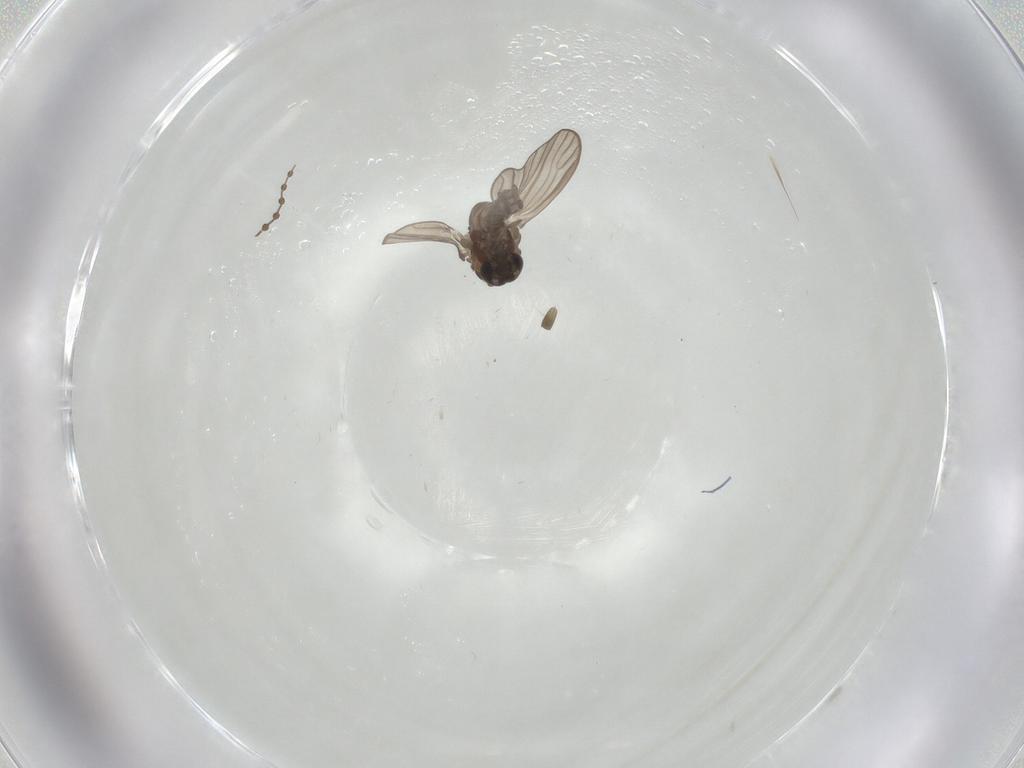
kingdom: Animalia
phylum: Arthropoda
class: Insecta
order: Diptera
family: Psychodidae
